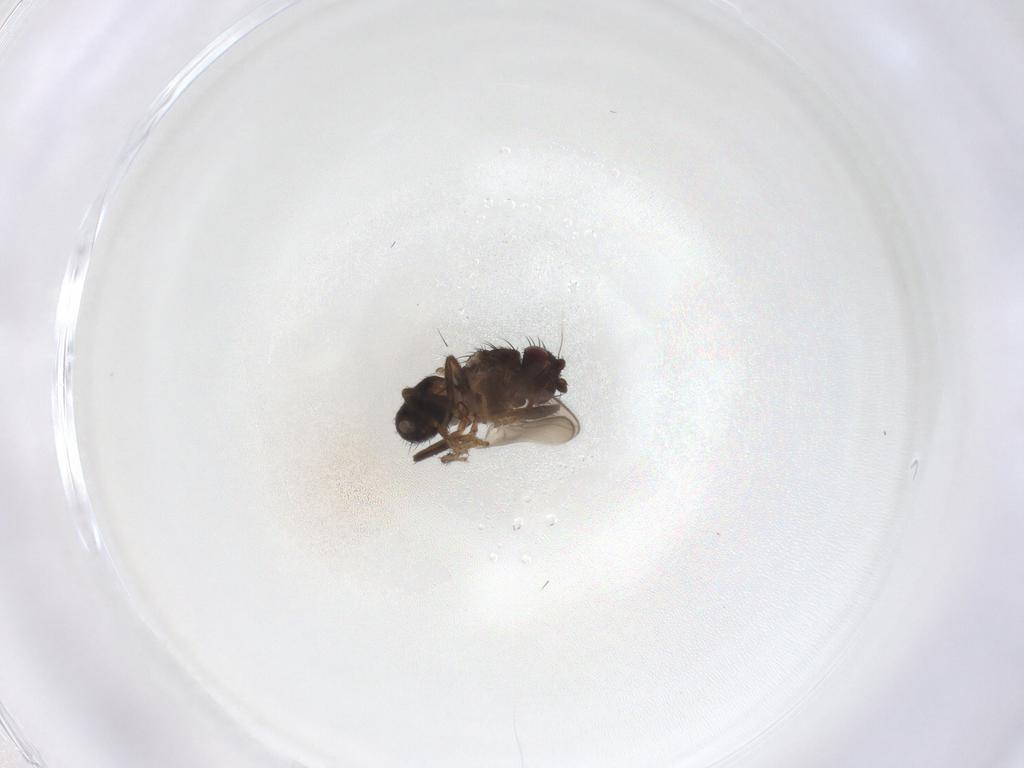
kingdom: Animalia
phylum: Arthropoda
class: Insecta
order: Diptera
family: Sphaeroceridae
